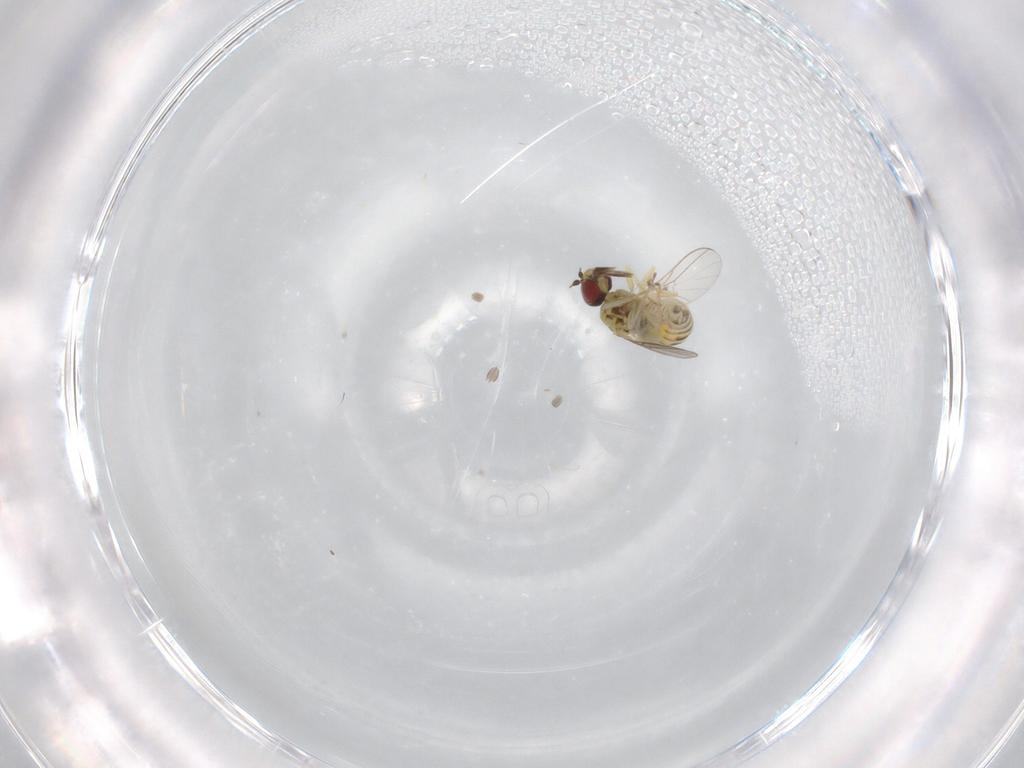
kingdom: Animalia
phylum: Arthropoda
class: Insecta
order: Diptera
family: Bombyliidae
